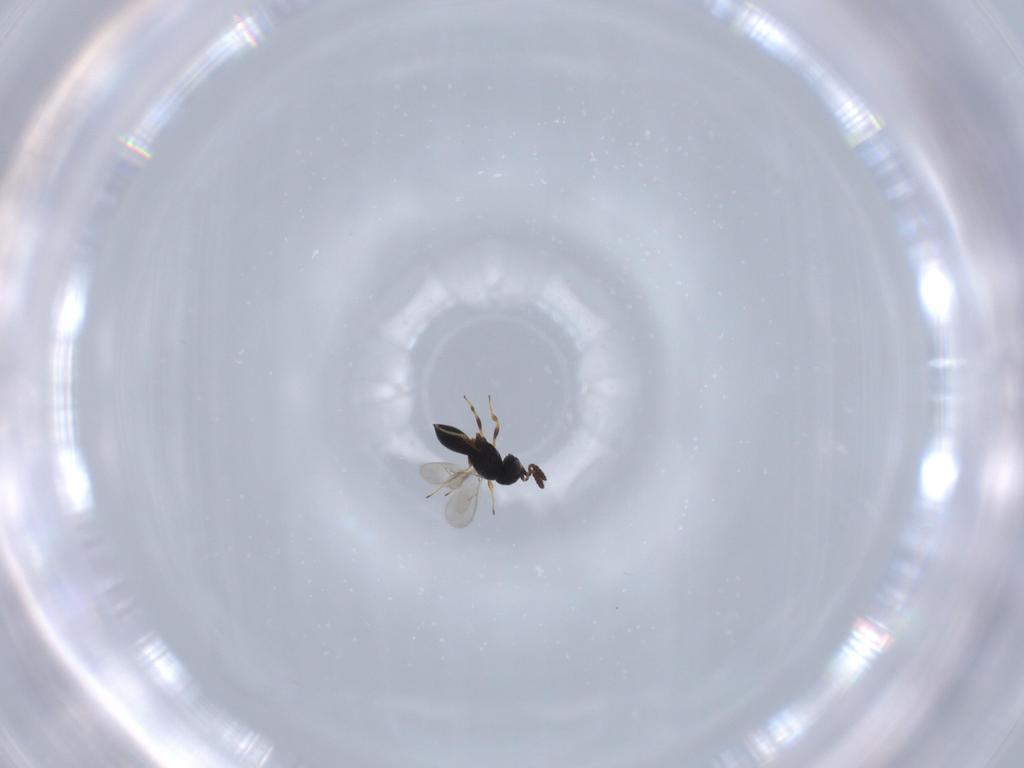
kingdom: Animalia
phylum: Arthropoda
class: Insecta
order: Hymenoptera
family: Scelionidae
